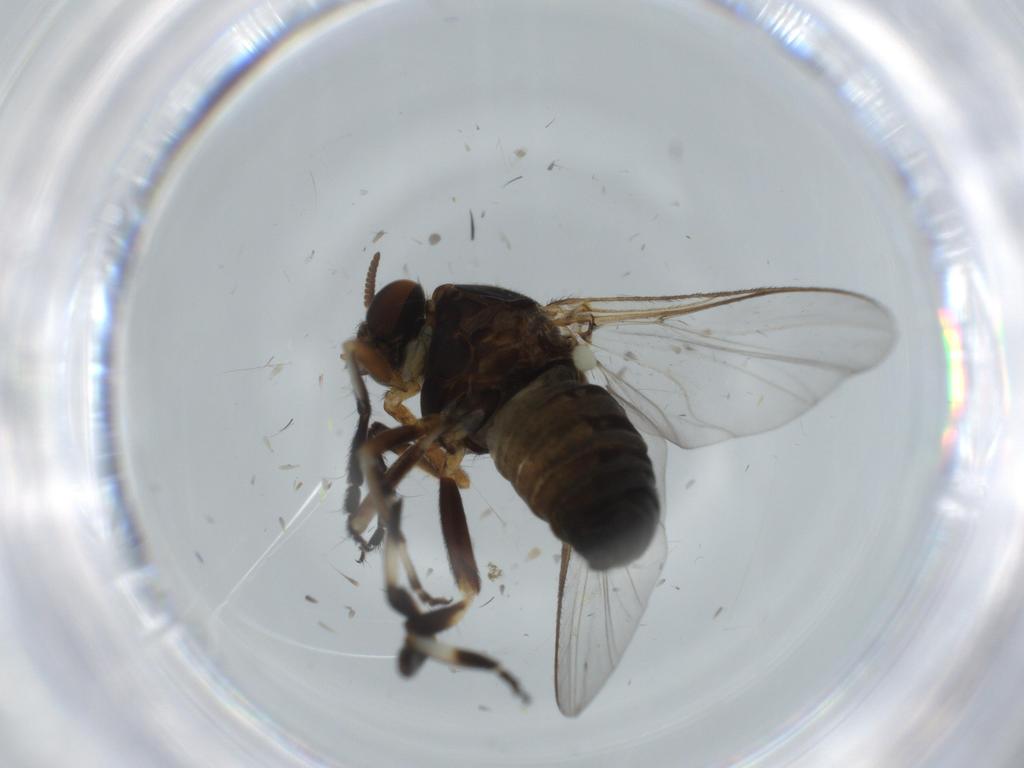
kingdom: Animalia
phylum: Arthropoda
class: Insecta
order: Diptera
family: Sciaridae
